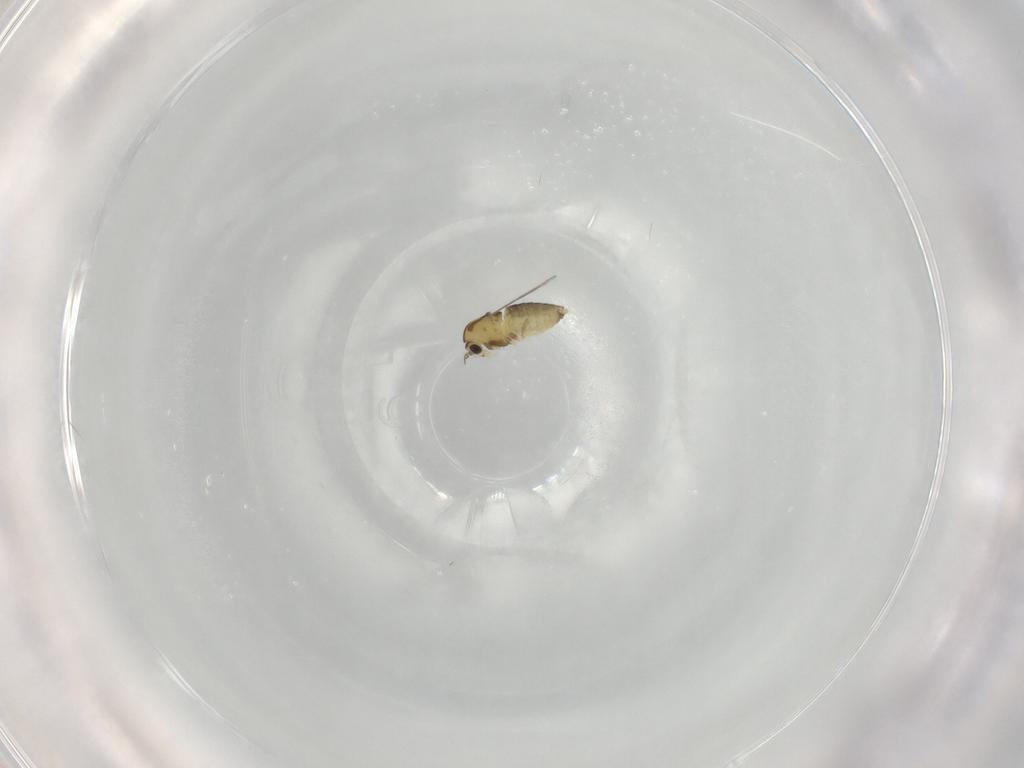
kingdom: Animalia
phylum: Arthropoda
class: Insecta
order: Diptera
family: Chironomidae
